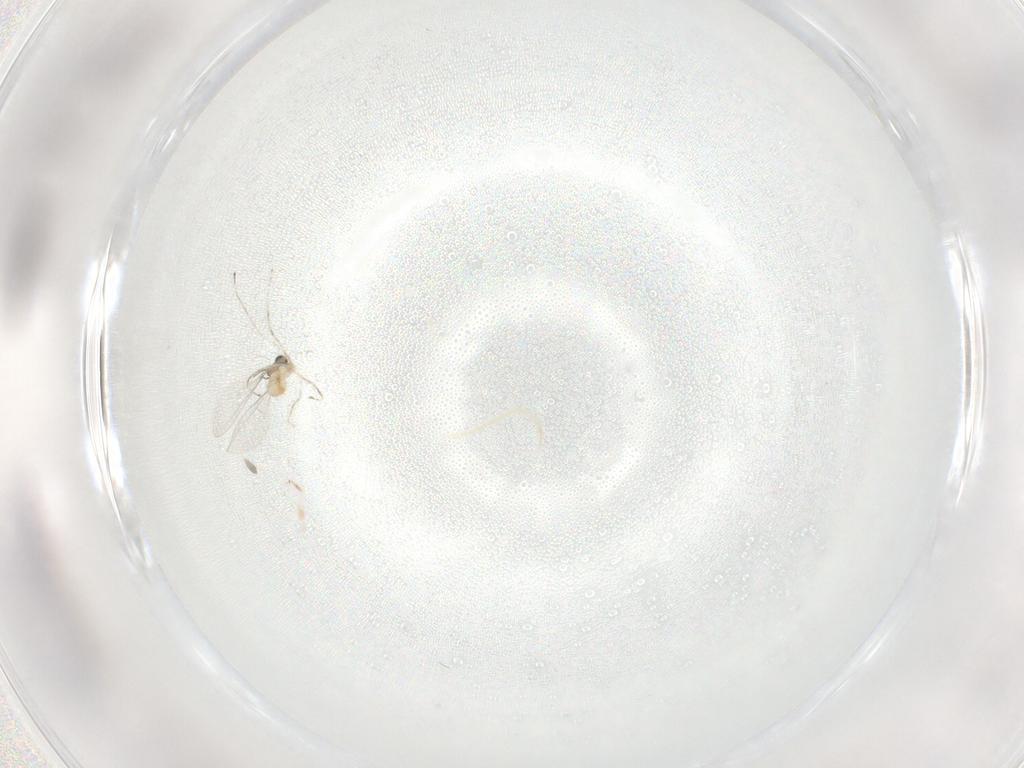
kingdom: Animalia
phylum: Arthropoda
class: Insecta
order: Diptera
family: Cecidomyiidae
